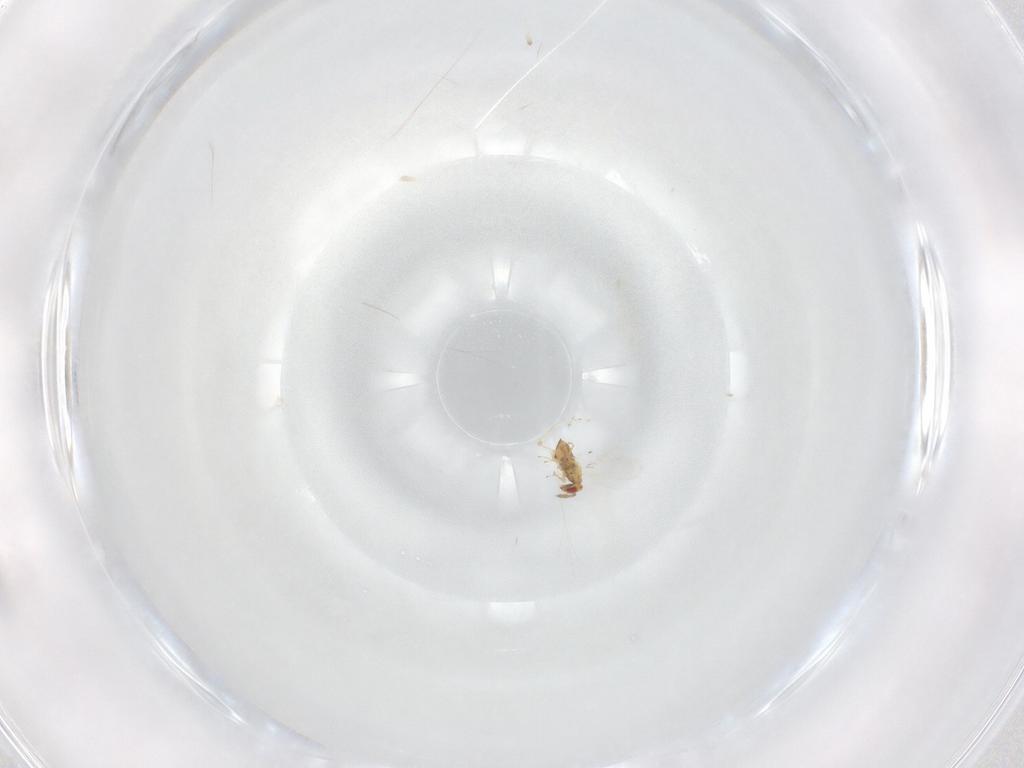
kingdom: Animalia
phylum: Arthropoda
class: Insecta
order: Hymenoptera
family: Trichogrammatidae
